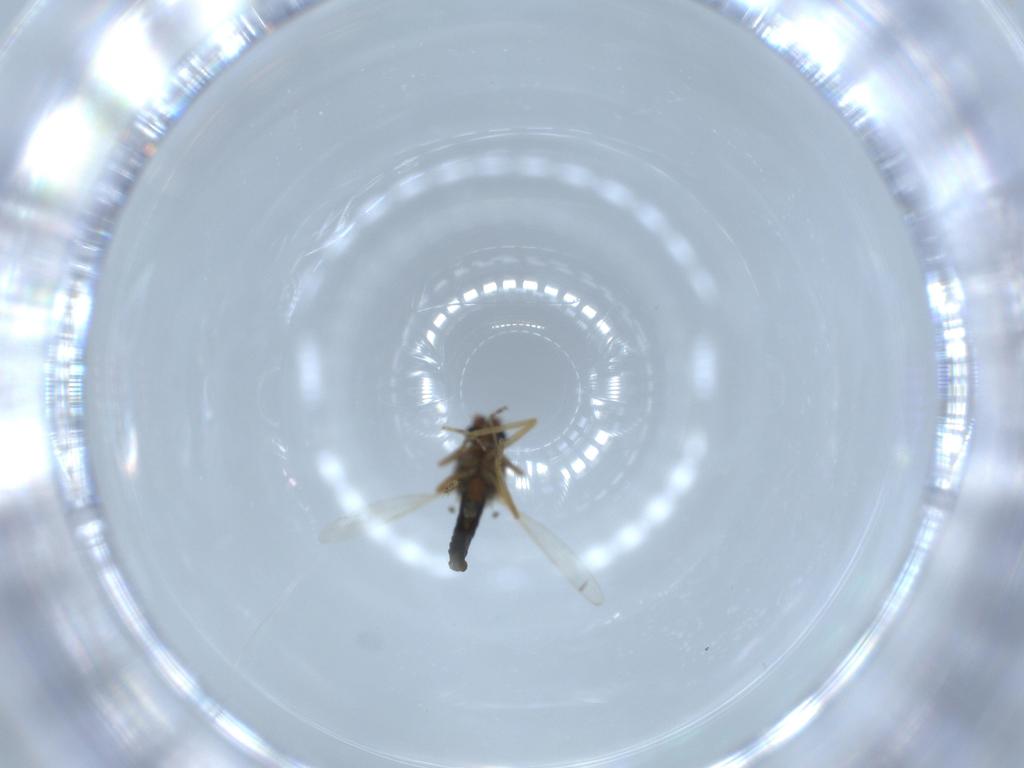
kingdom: Animalia
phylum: Arthropoda
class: Insecta
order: Diptera
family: Ceratopogonidae
